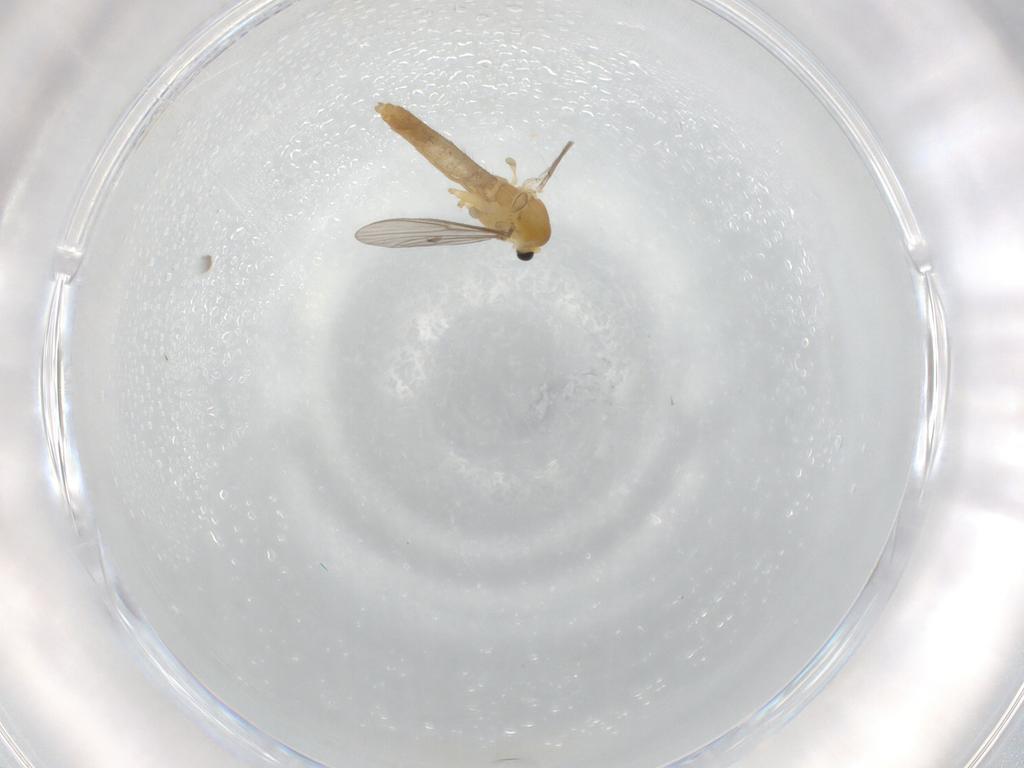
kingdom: Animalia
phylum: Arthropoda
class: Insecta
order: Diptera
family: Chironomidae
